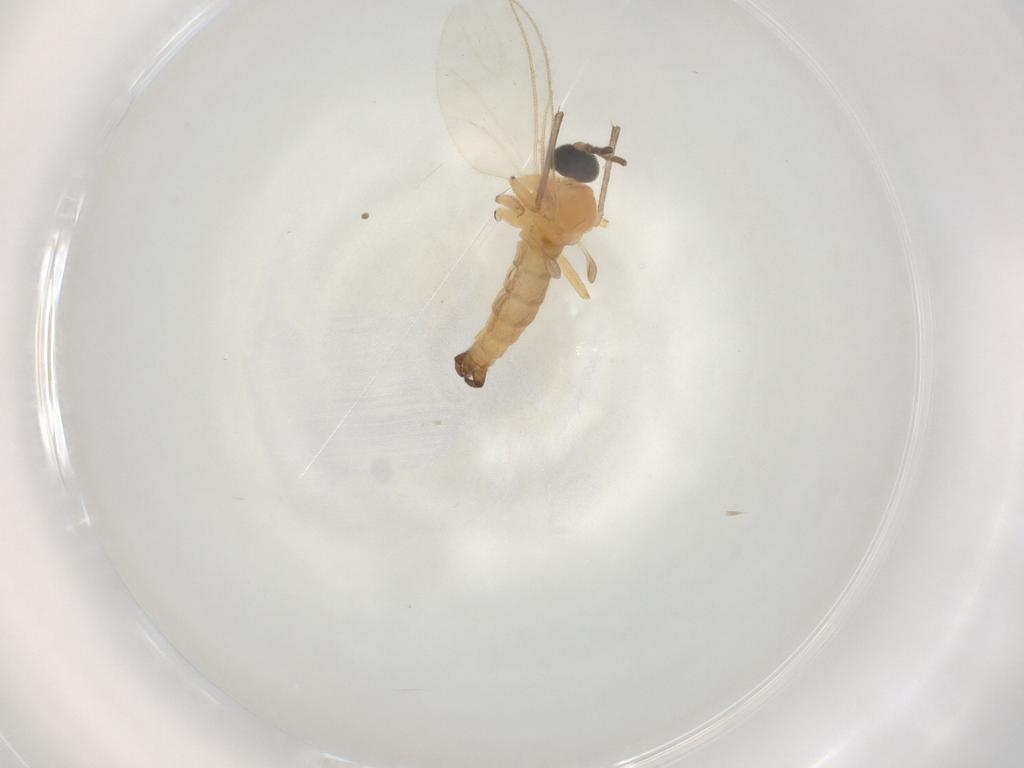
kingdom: Animalia
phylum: Arthropoda
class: Insecta
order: Diptera
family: Sciaridae
